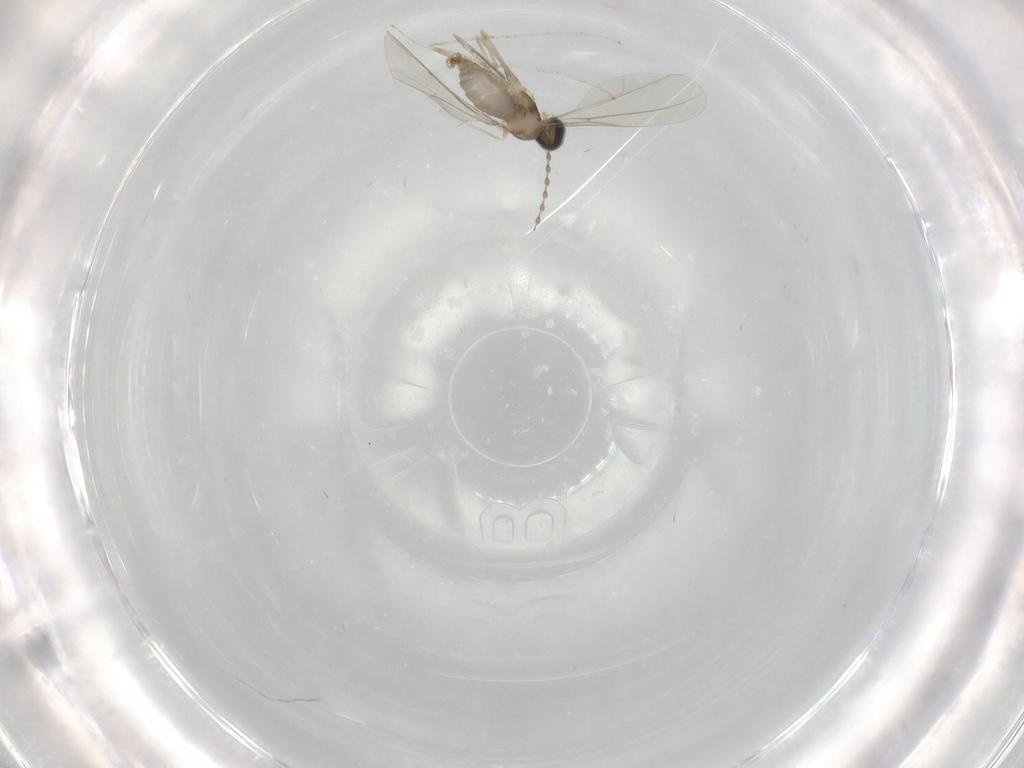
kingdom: Animalia
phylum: Arthropoda
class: Insecta
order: Diptera
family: Cecidomyiidae
